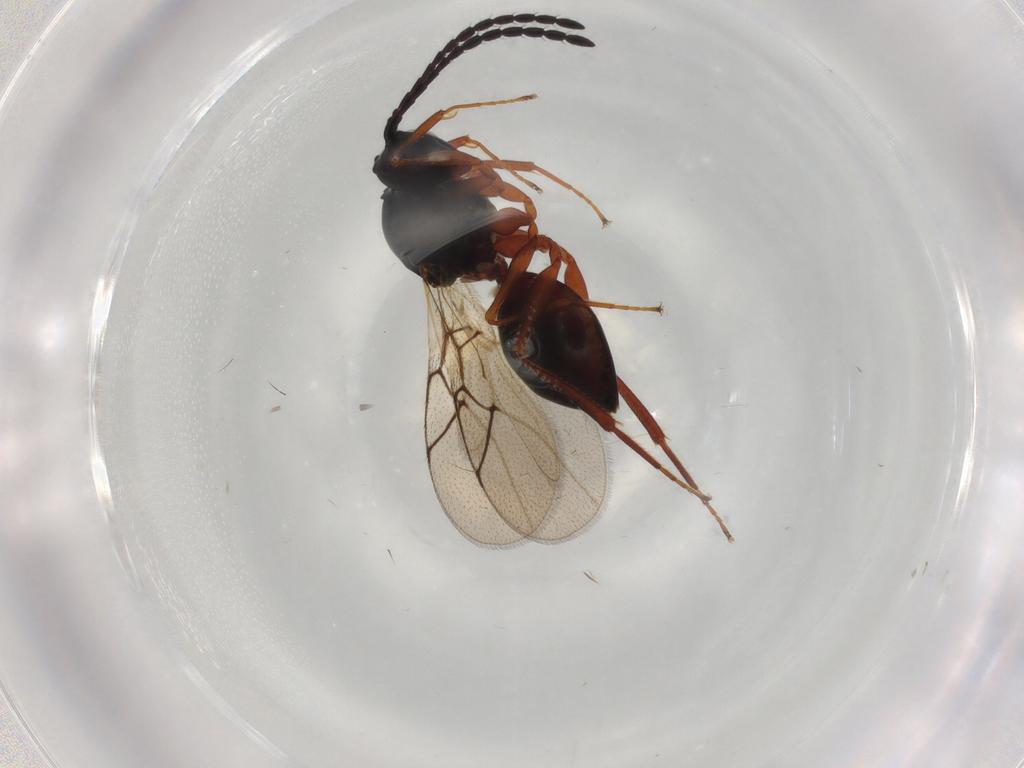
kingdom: Animalia
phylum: Arthropoda
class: Insecta
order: Hymenoptera
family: Figitidae
